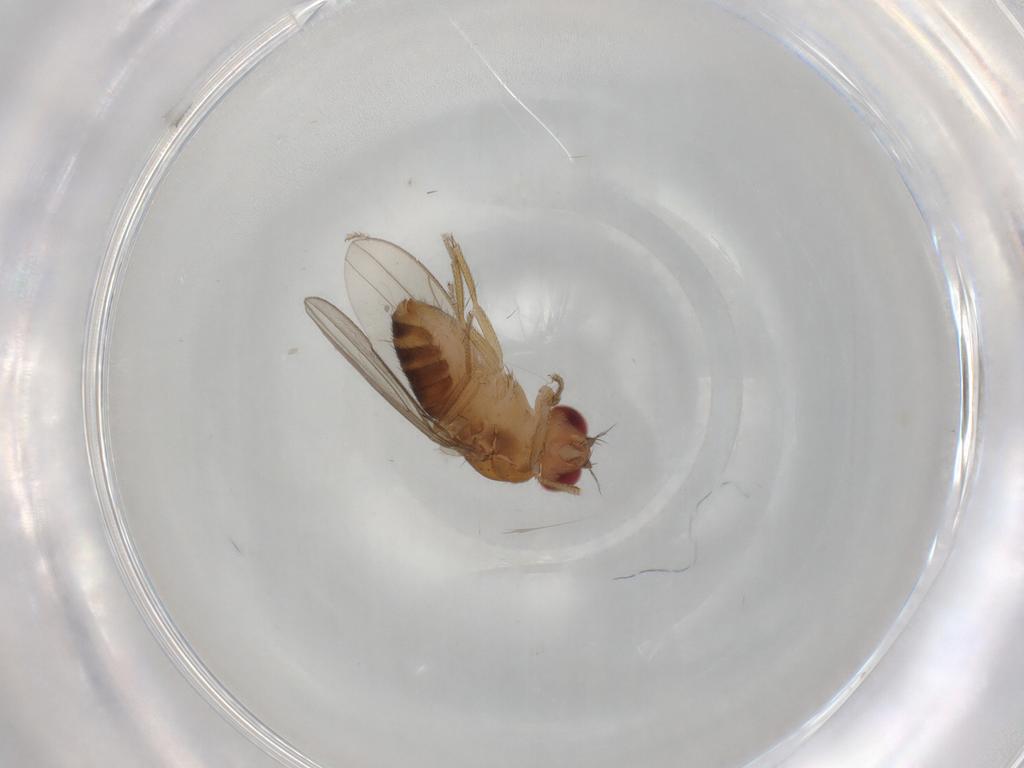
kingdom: Animalia
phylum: Arthropoda
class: Insecta
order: Diptera
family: Drosophilidae
